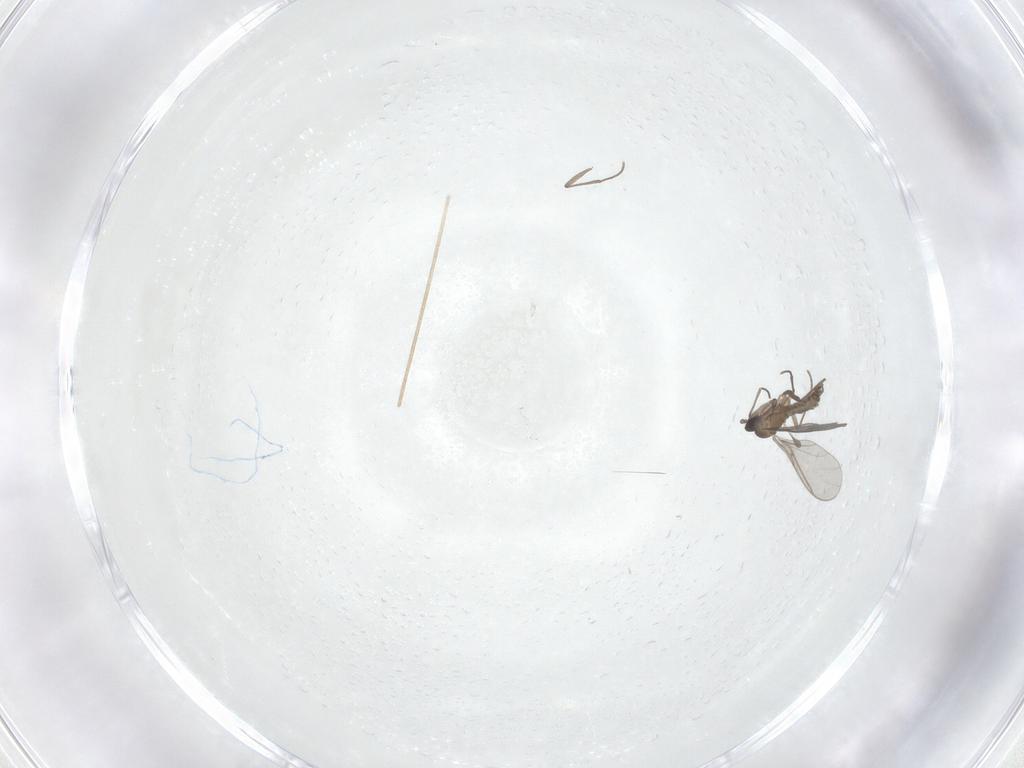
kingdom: Animalia
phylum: Arthropoda
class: Insecta
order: Diptera
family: Sciaridae
